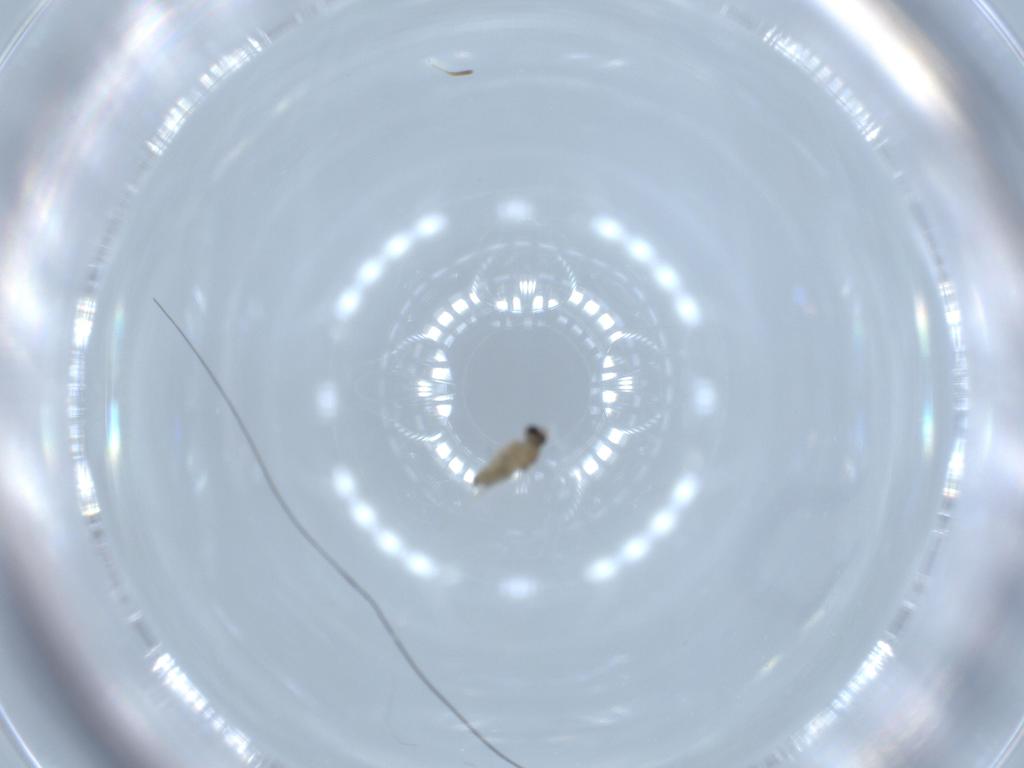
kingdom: Animalia
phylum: Arthropoda
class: Insecta
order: Diptera
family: Cecidomyiidae
